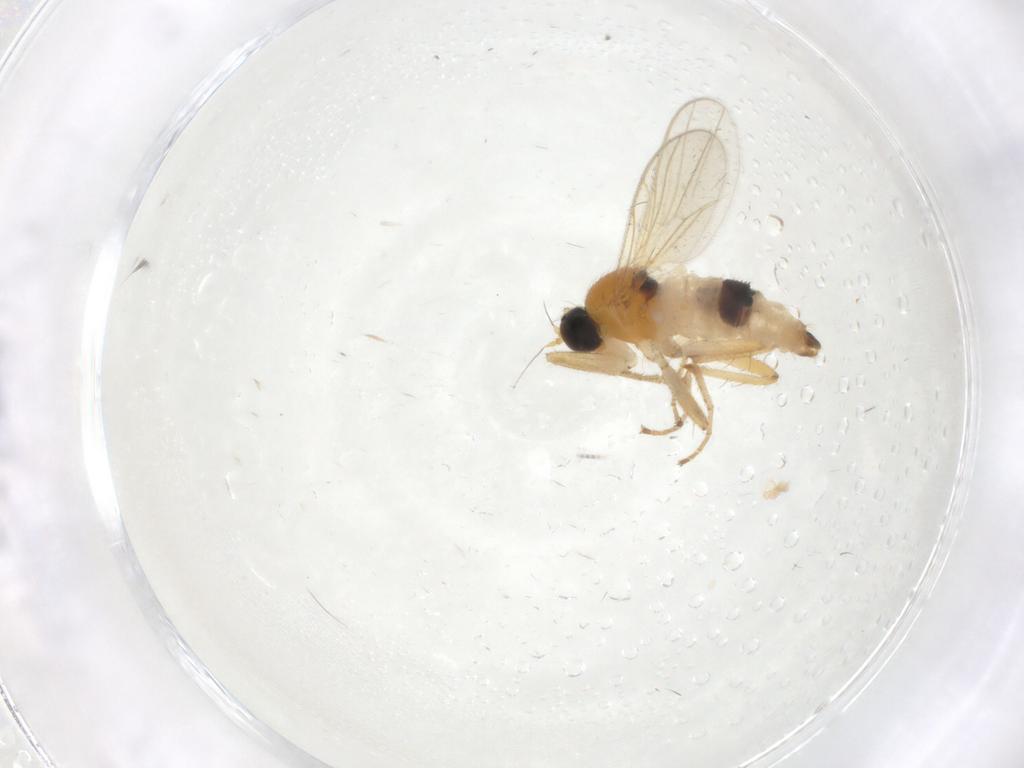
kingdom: Animalia
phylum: Arthropoda
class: Insecta
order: Diptera
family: Hybotidae
